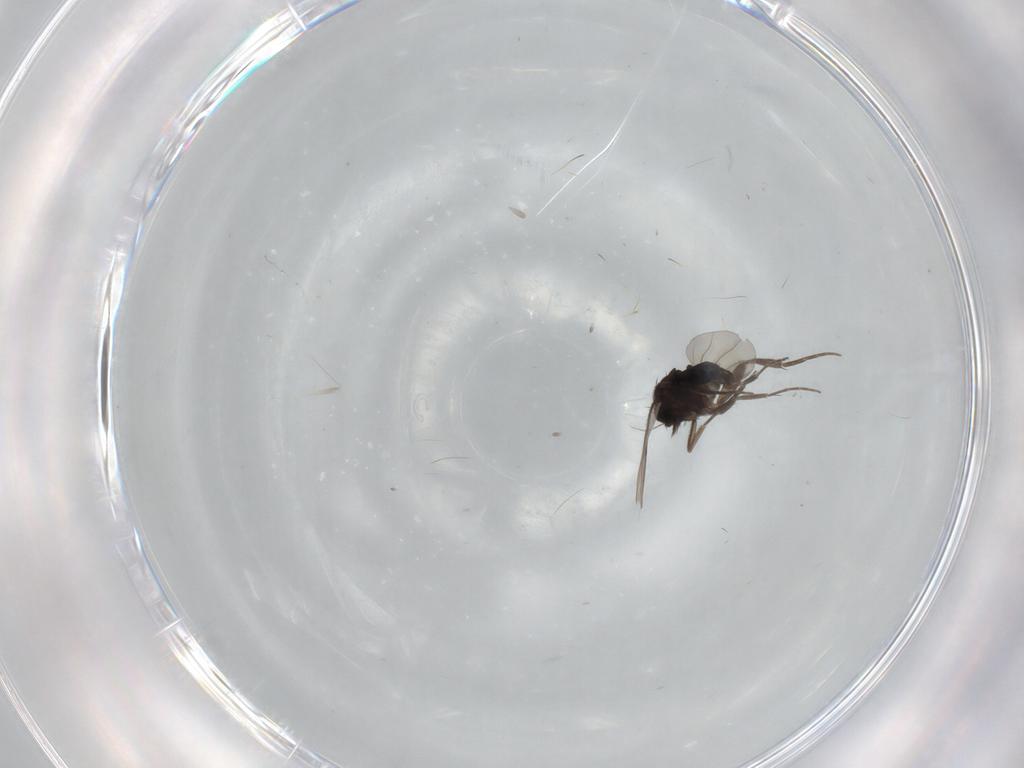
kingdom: Animalia
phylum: Arthropoda
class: Insecta
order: Diptera
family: Phoridae
